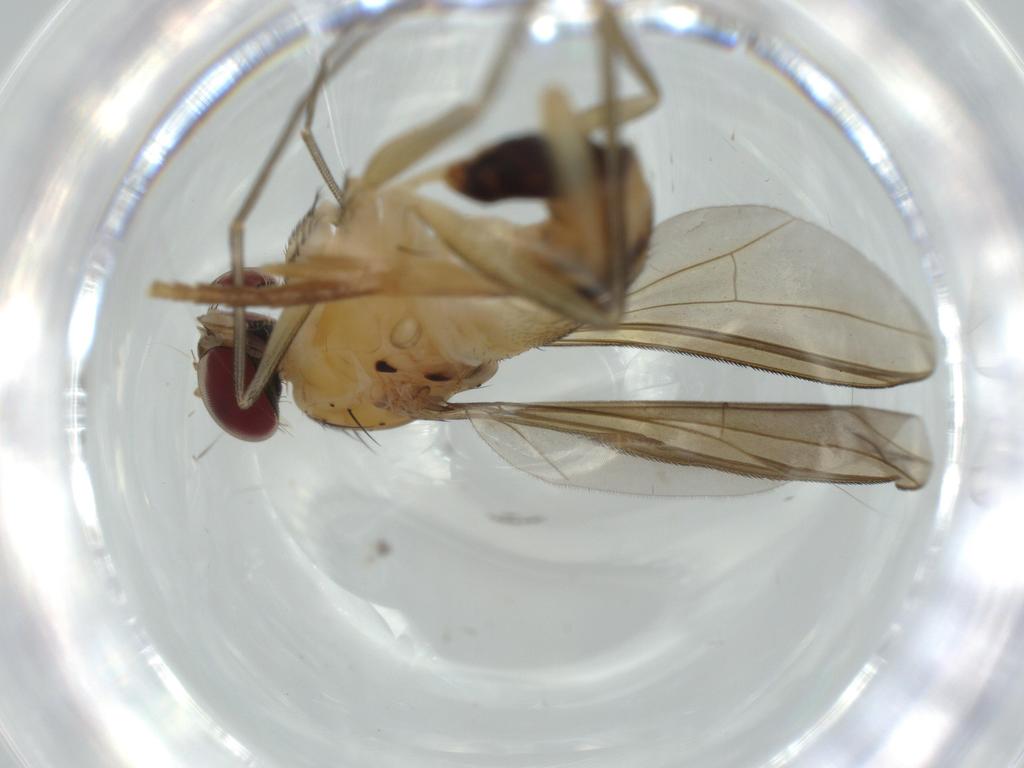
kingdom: Animalia
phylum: Arthropoda
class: Insecta
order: Diptera
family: Dolichopodidae
